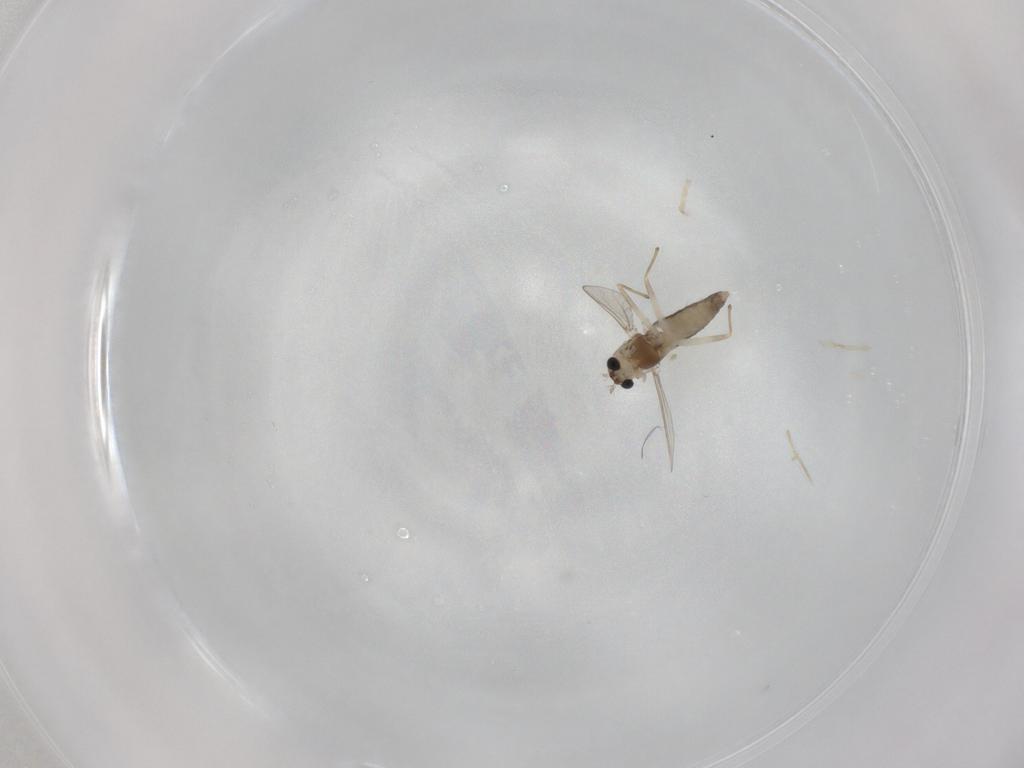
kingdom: Animalia
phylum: Arthropoda
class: Insecta
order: Diptera
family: Chironomidae
